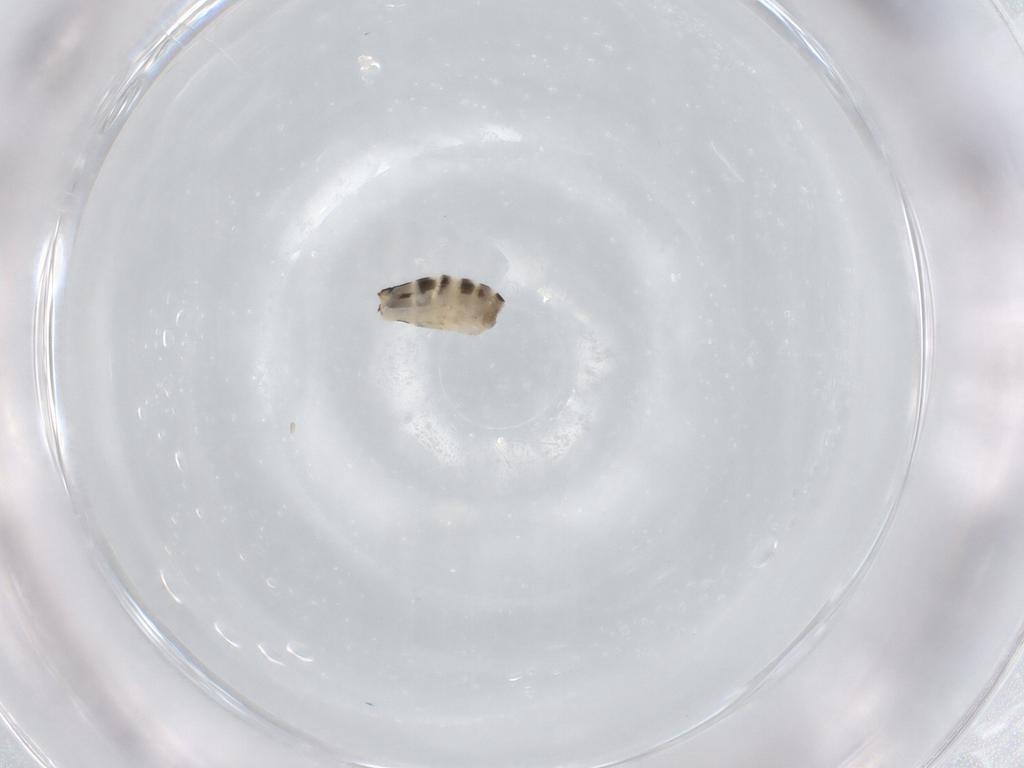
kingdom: Animalia
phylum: Arthropoda
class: Insecta
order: Diptera
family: Ceratopogonidae
